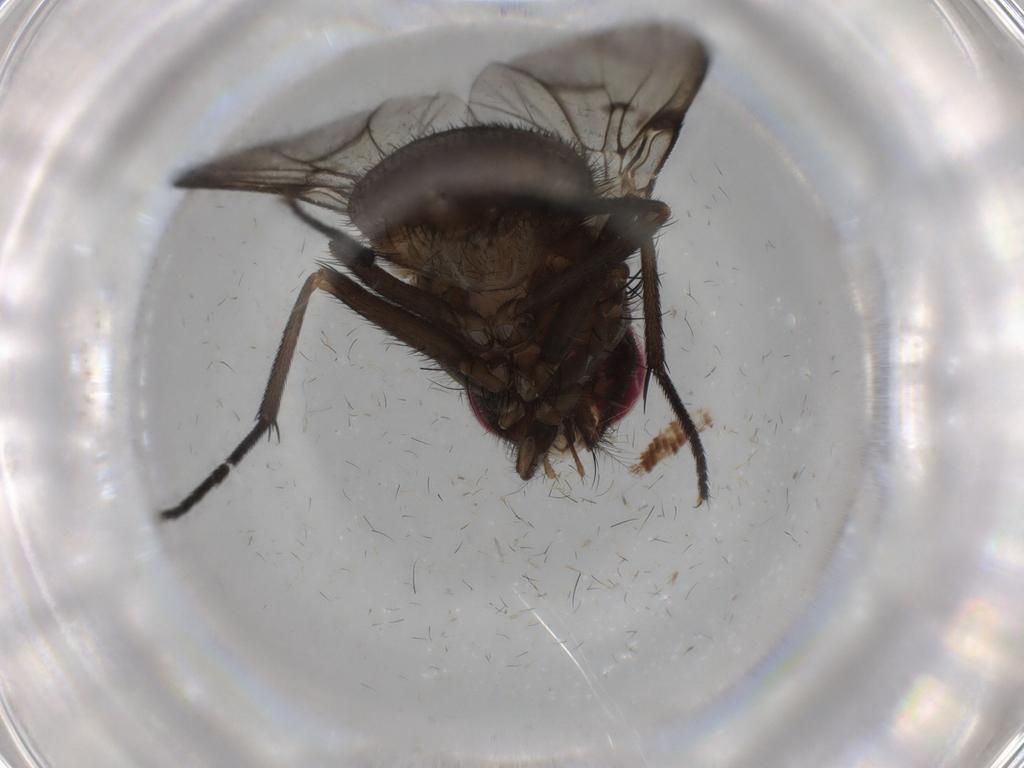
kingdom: Animalia
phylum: Arthropoda
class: Insecta
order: Diptera
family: Muscidae
